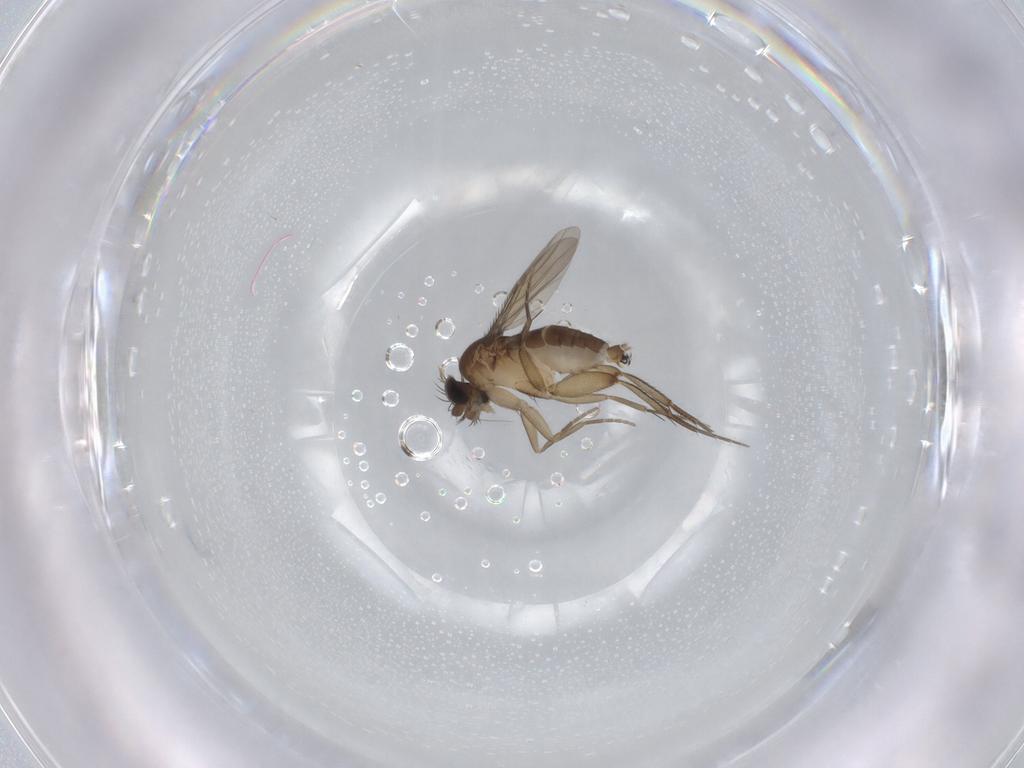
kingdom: Animalia
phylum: Arthropoda
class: Insecta
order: Diptera
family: Phoridae
